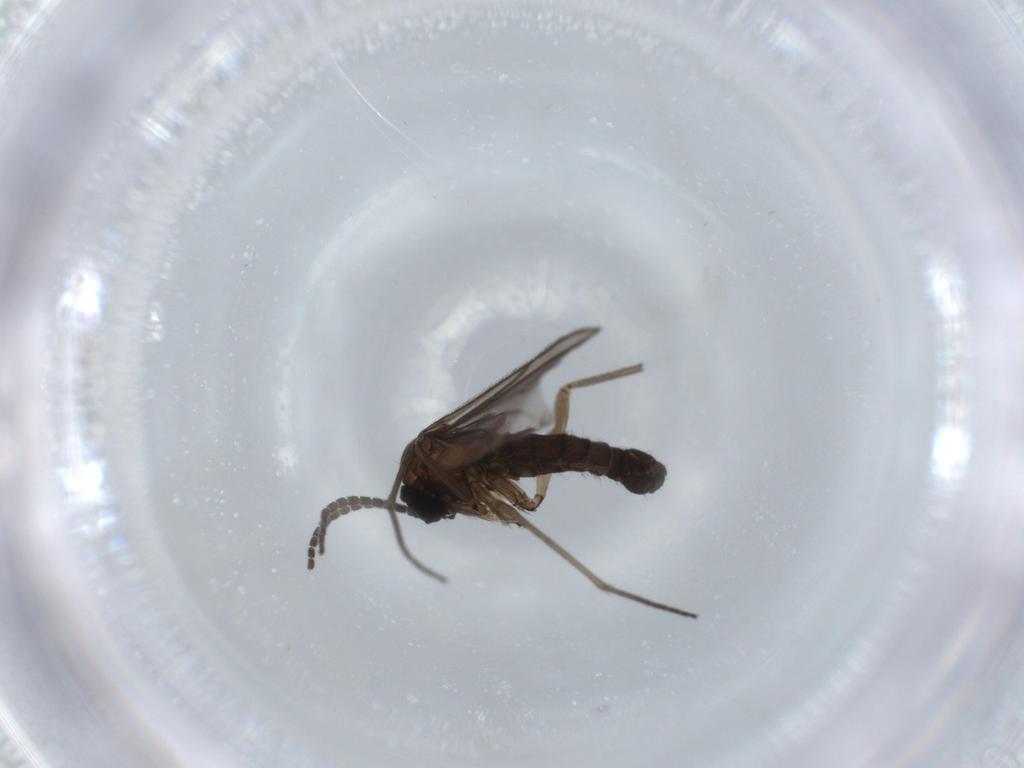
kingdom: Animalia
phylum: Arthropoda
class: Insecta
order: Diptera
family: Sciaridae
